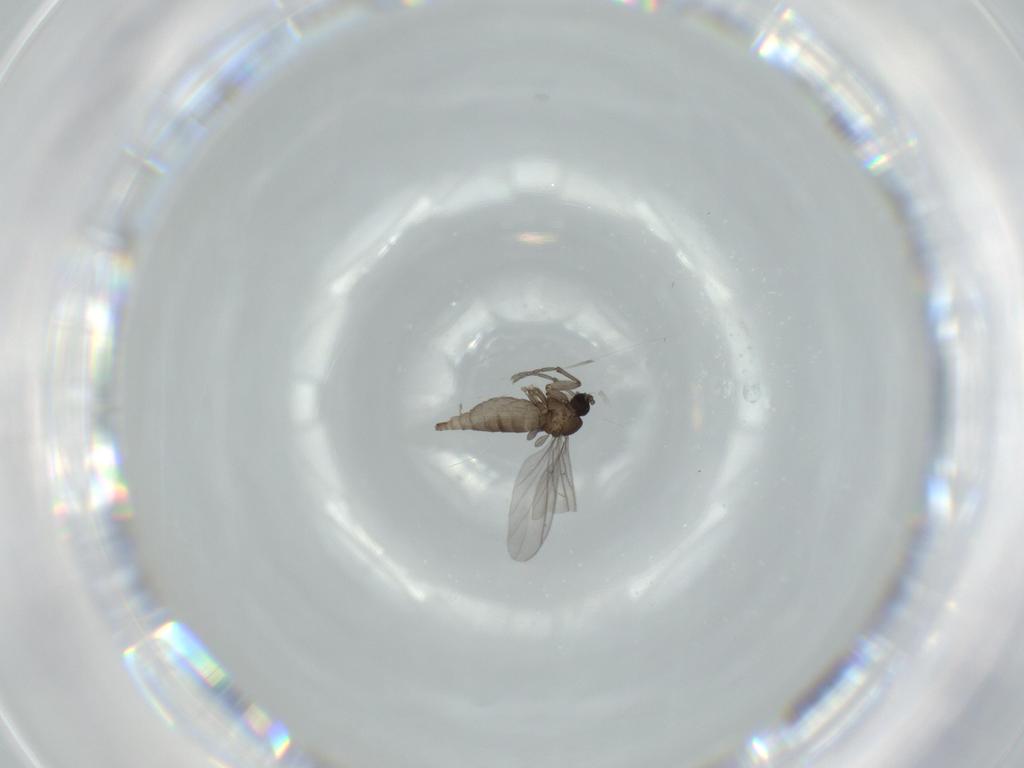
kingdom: Animalia
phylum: Arthropoda
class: Insecta
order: Diptera
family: Sciaridae
